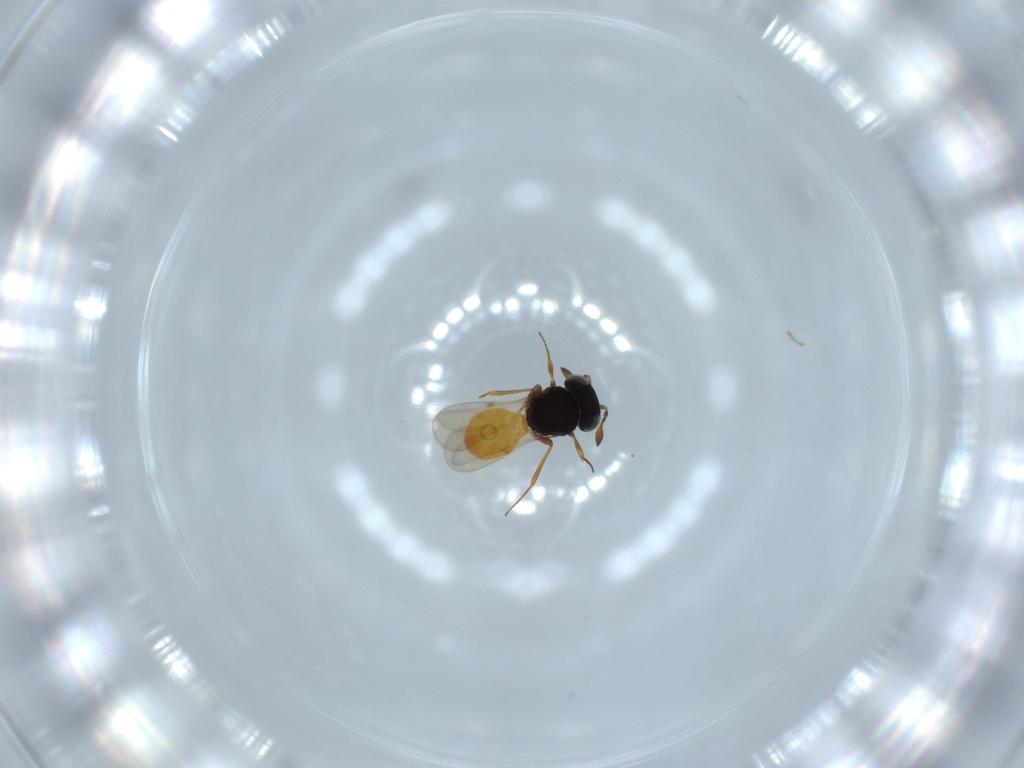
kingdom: Animalia
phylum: Arthropoda
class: Insecta
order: Hymenoptera
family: Scelionidae
